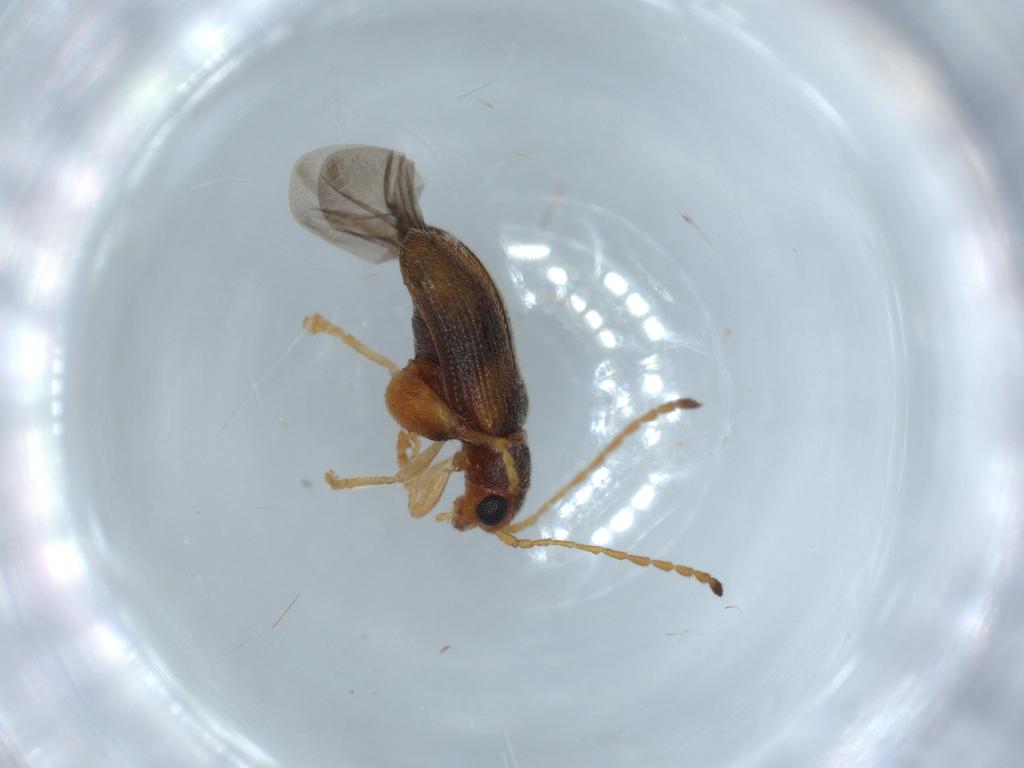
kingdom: Animalia
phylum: Arthropoda
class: Insecta
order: Coleoptera
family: Chrysomelidae
